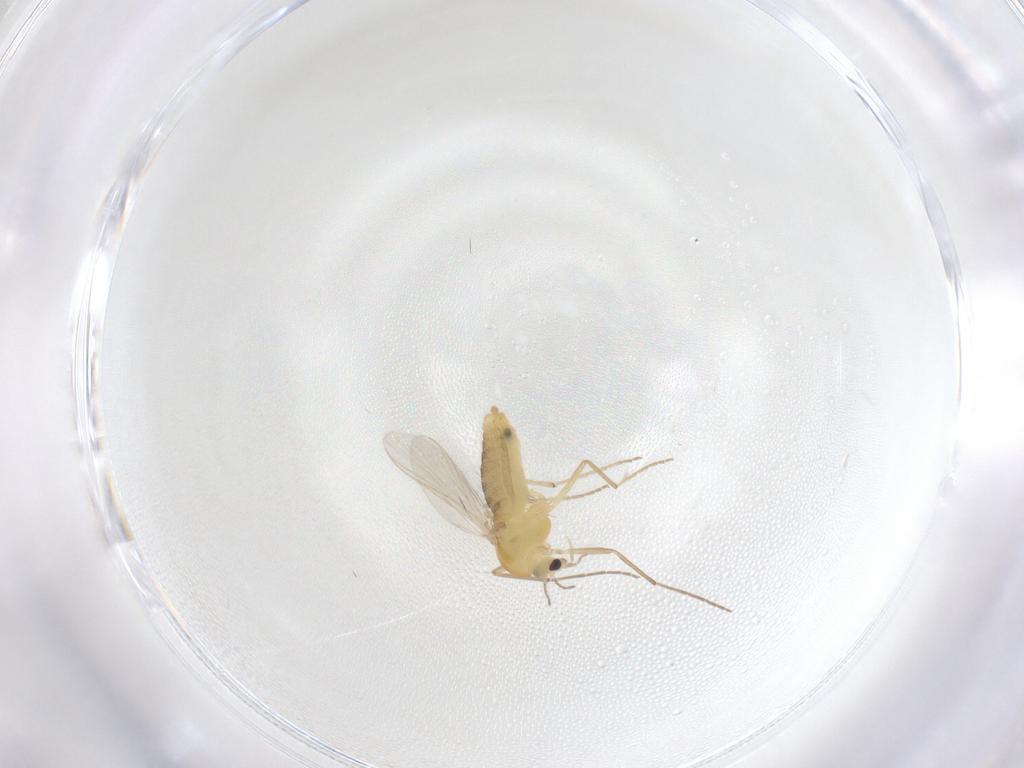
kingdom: Animalia
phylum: Arthropoda
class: Insecta
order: Diptera
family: Chironomidae
